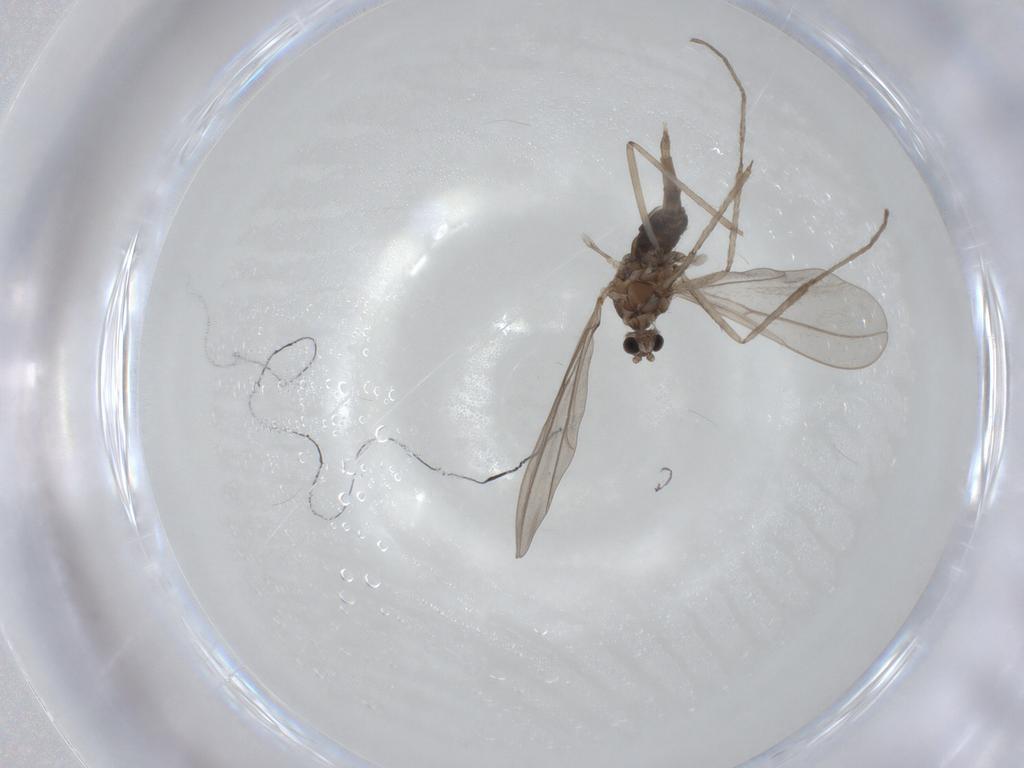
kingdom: Animalia
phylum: Arthropoda
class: Insecta
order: Diptera
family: Cecidomyiidae
